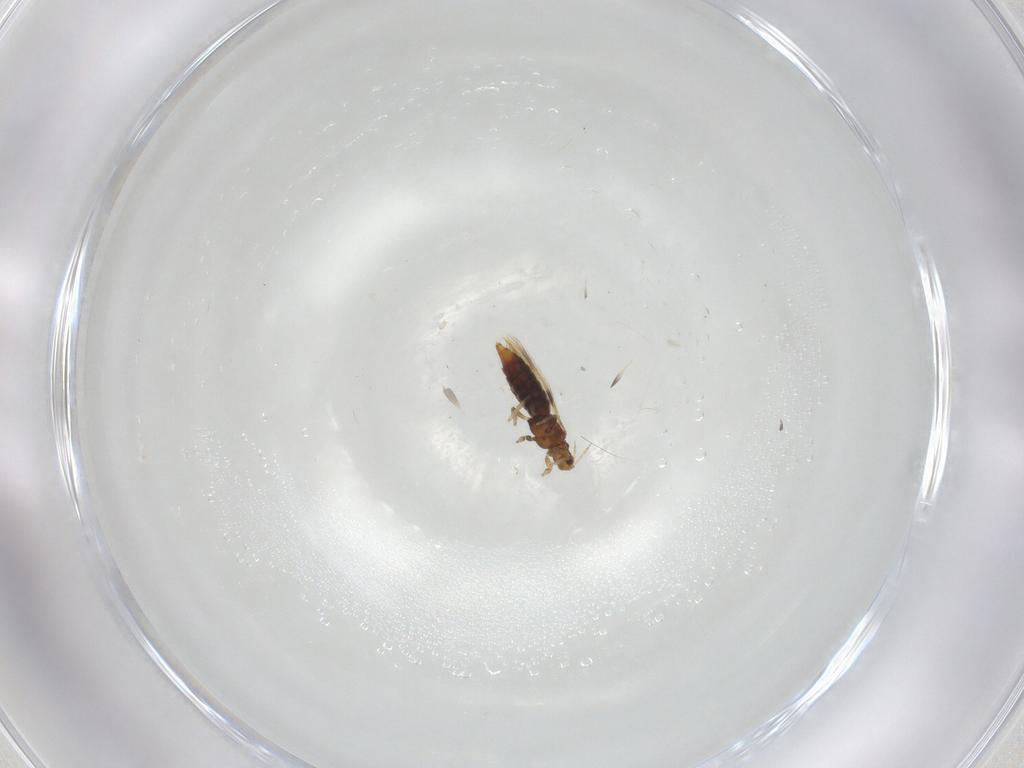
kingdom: Animalia
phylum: Arthropoda
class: Insecta
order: Thysanoptera
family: Thripidae
